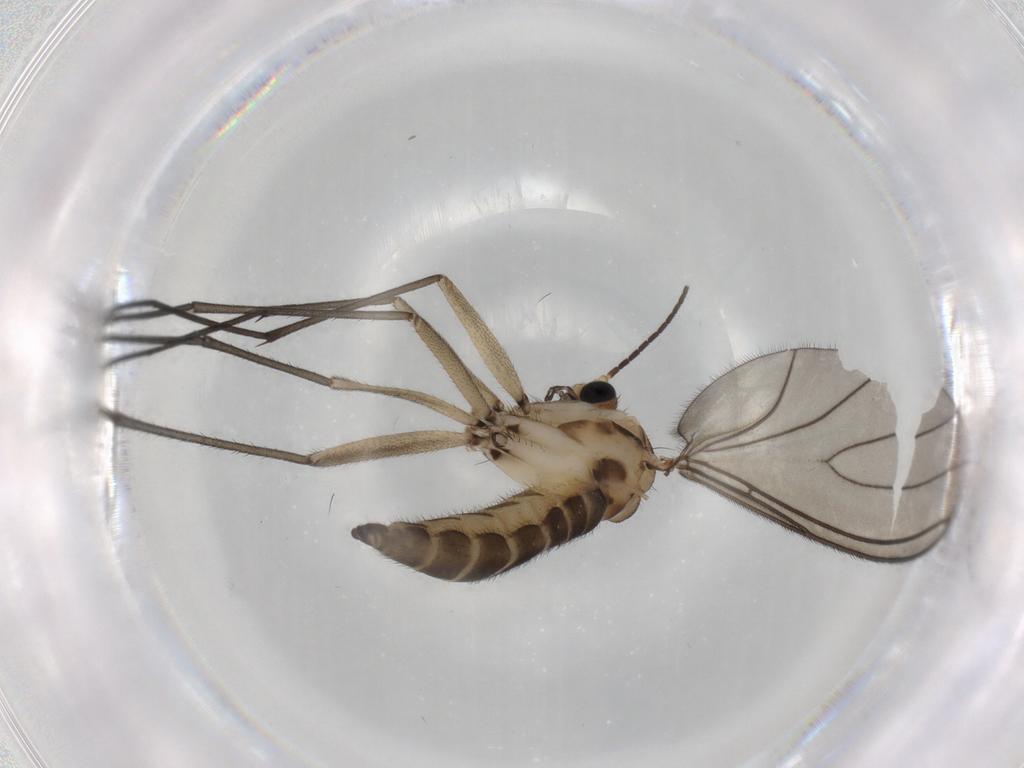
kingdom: Animalia
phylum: Arthropoda
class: Insecta
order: Diptera
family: Sciaridae
